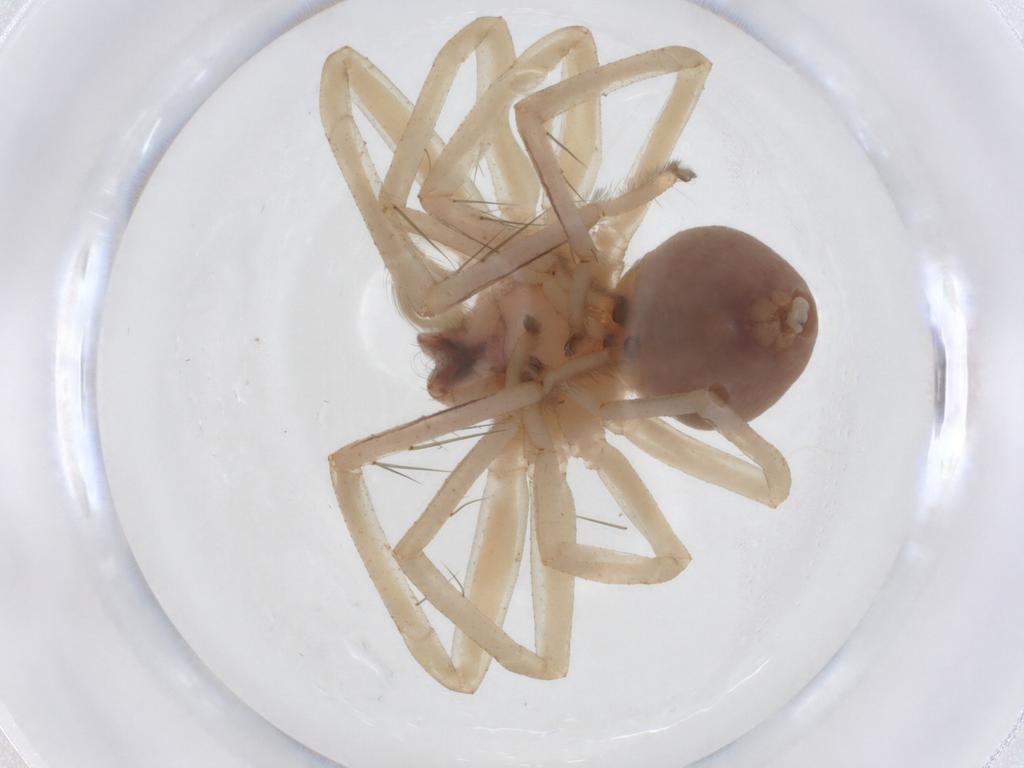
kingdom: Animalia
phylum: Arthropoda
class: Arachnida
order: Araneae
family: Sparassidae
